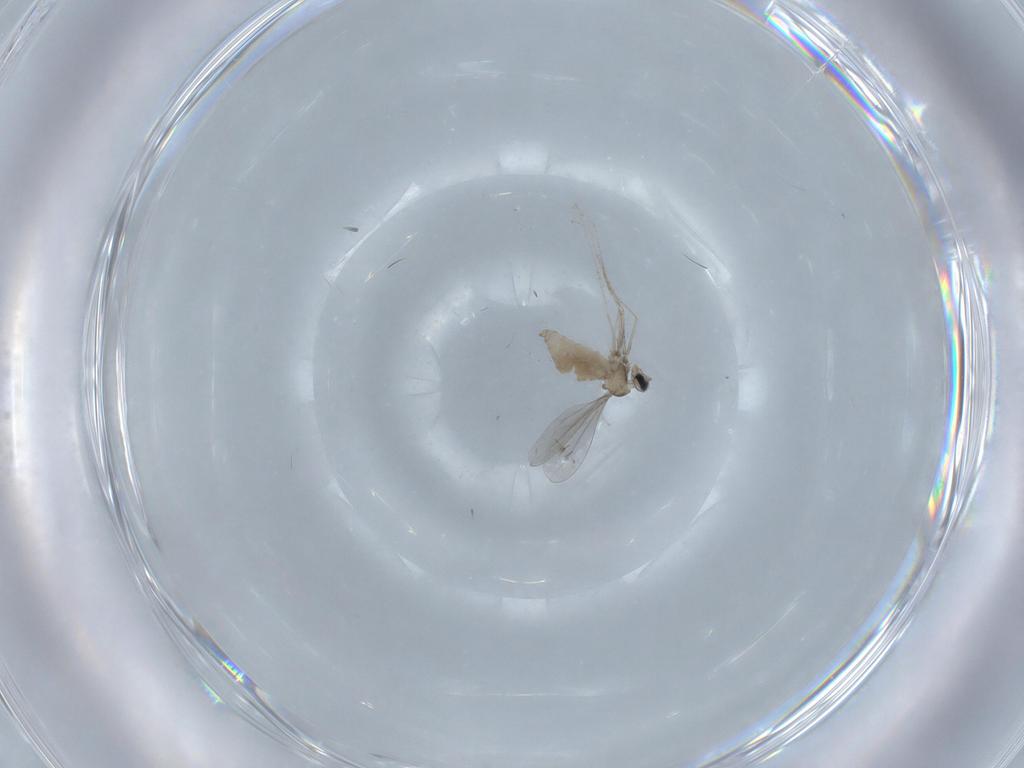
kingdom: Animalia
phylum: Arthropoda
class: Insecta
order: Diptera
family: Cecidomyiidae
